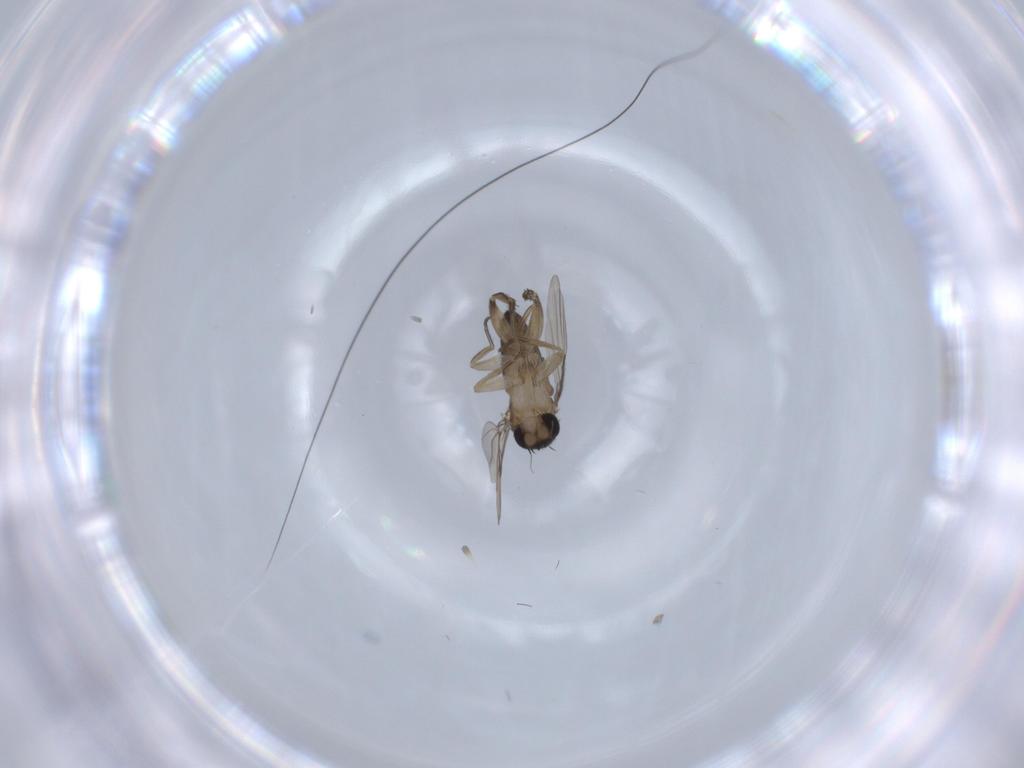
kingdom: Animalia
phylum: Arthropoda
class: Insecta
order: Diptera
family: Phoridae
